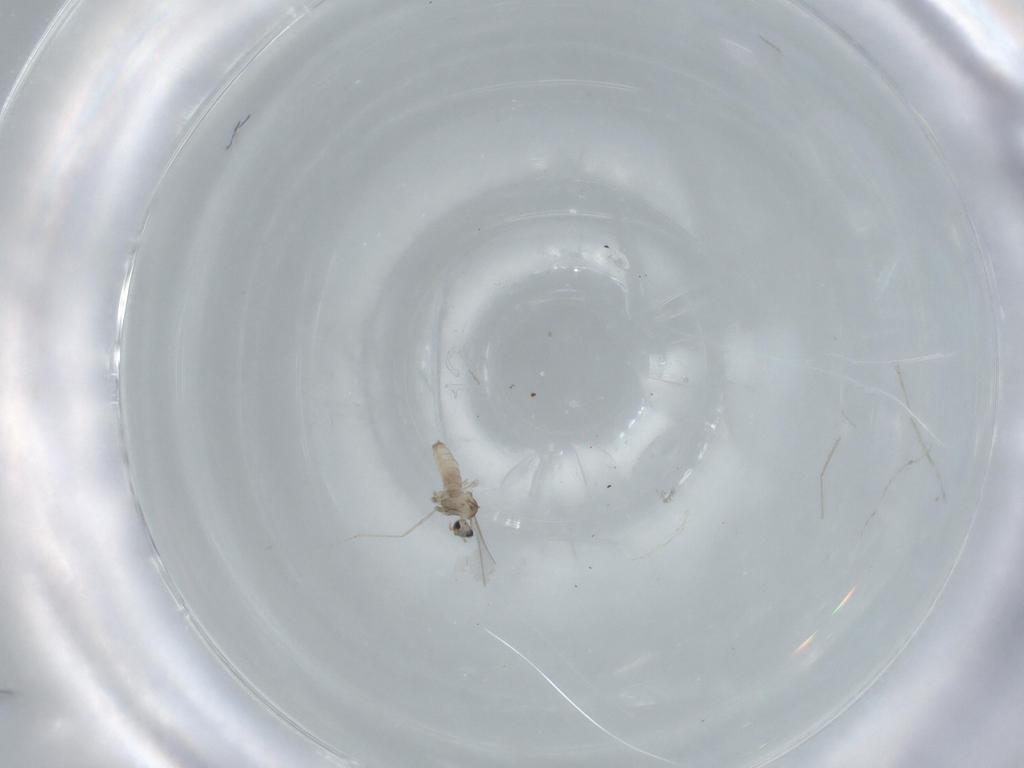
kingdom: Animalia
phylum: Arthropoda
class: Insecta
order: Diptera
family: Cecidomyiidae
